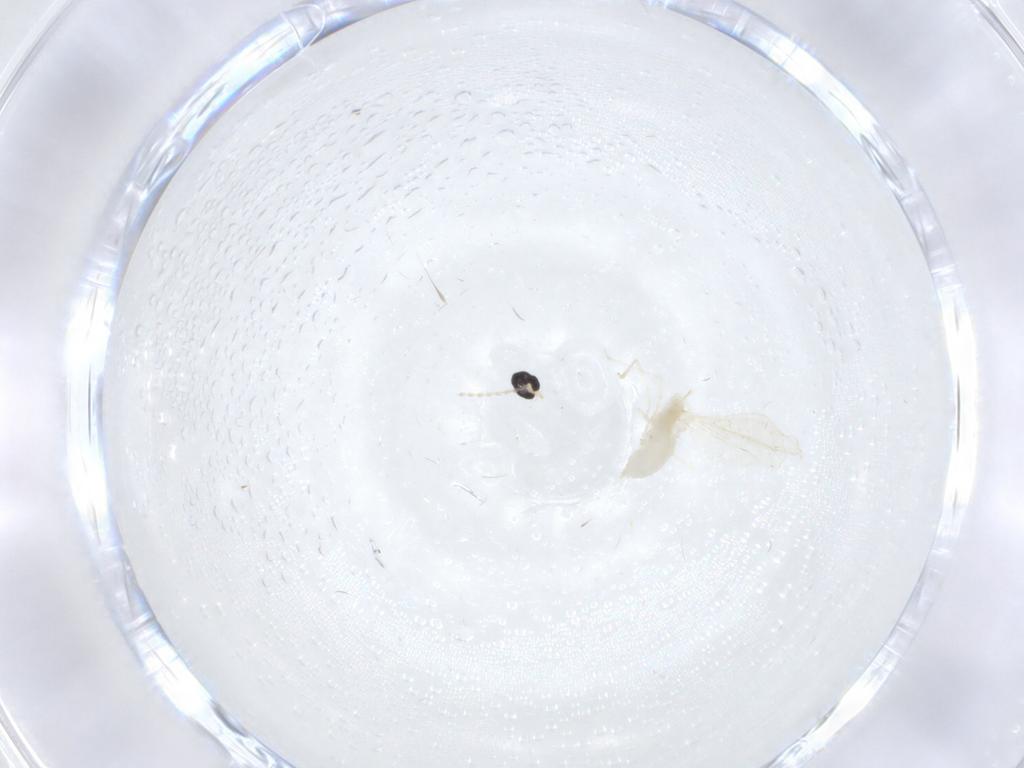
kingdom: Animalia
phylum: Arthropoda
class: Insecta
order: Diptera
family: Cecidomyiidae
